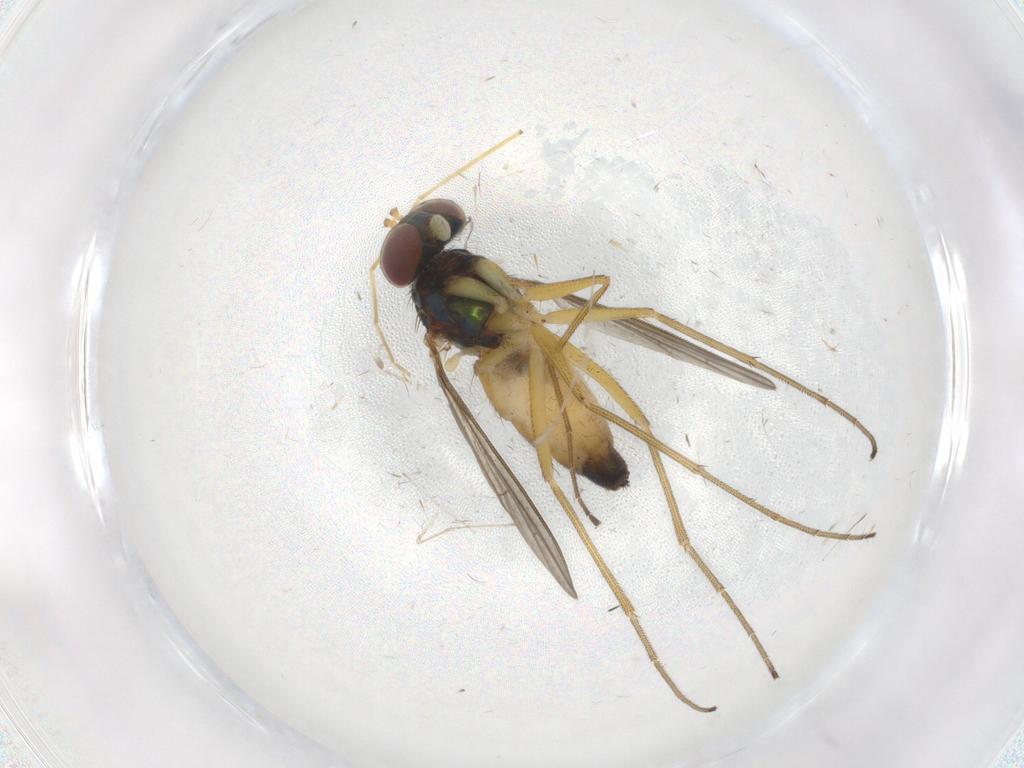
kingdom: Animalia
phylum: Arthropoda
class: Insecta
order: Diptera
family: Dolichopodidae
